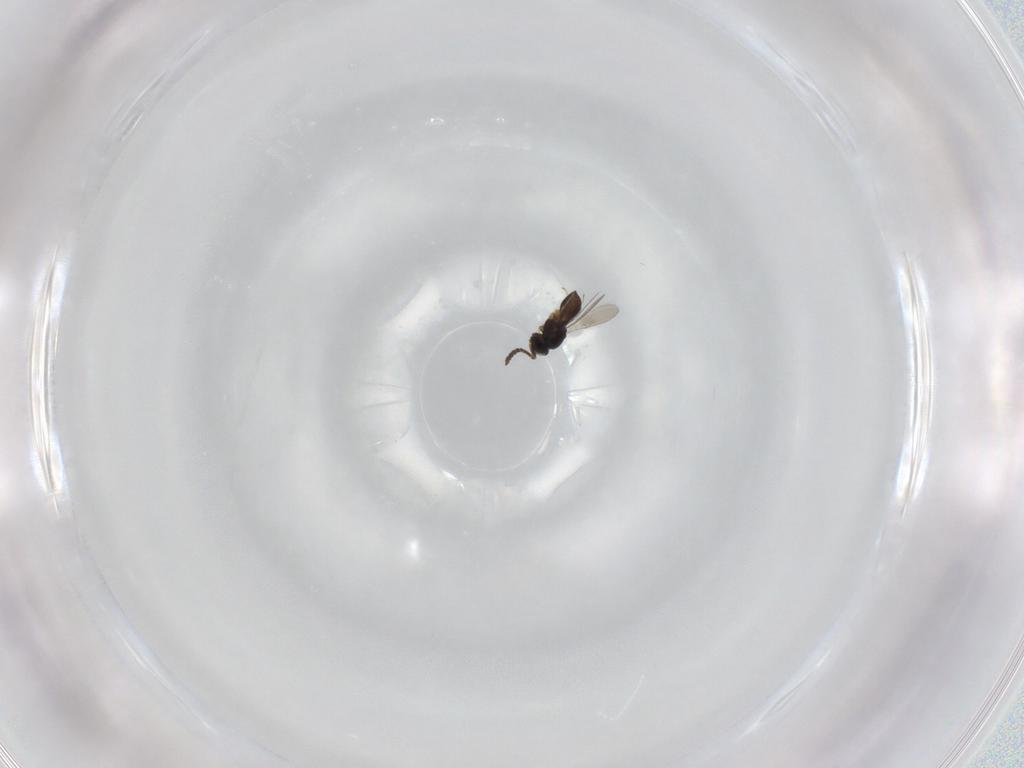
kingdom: Animalia
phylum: Arthropoda
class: Insecta
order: Hymenoptera
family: Scelionidae
